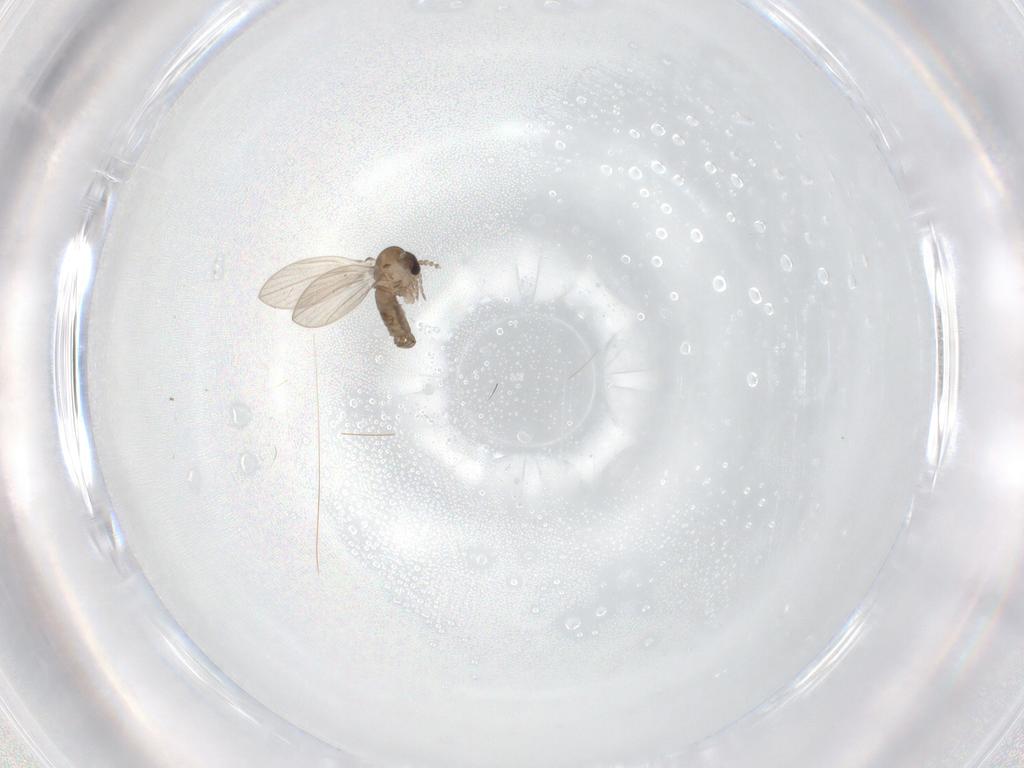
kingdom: Animalia
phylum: Arthropoda
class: Insecta
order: Diptera
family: Psychodidae
